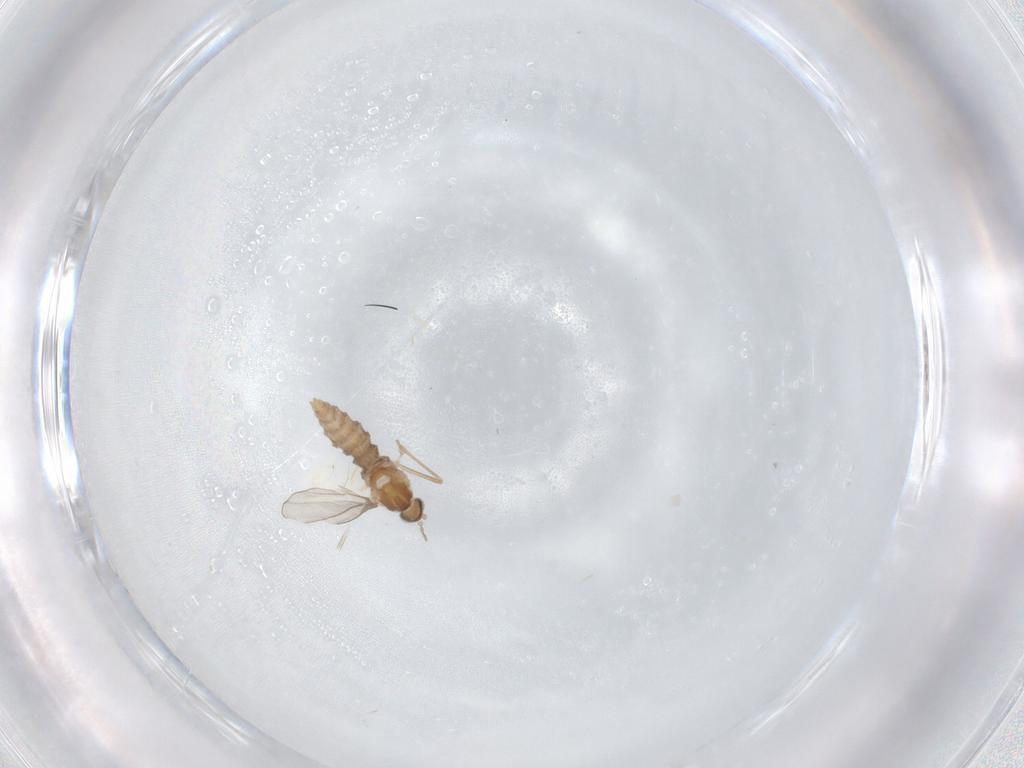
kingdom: Animalia
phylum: Arthropoda
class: Insecta
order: Diptera
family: Cecidomyiidae
